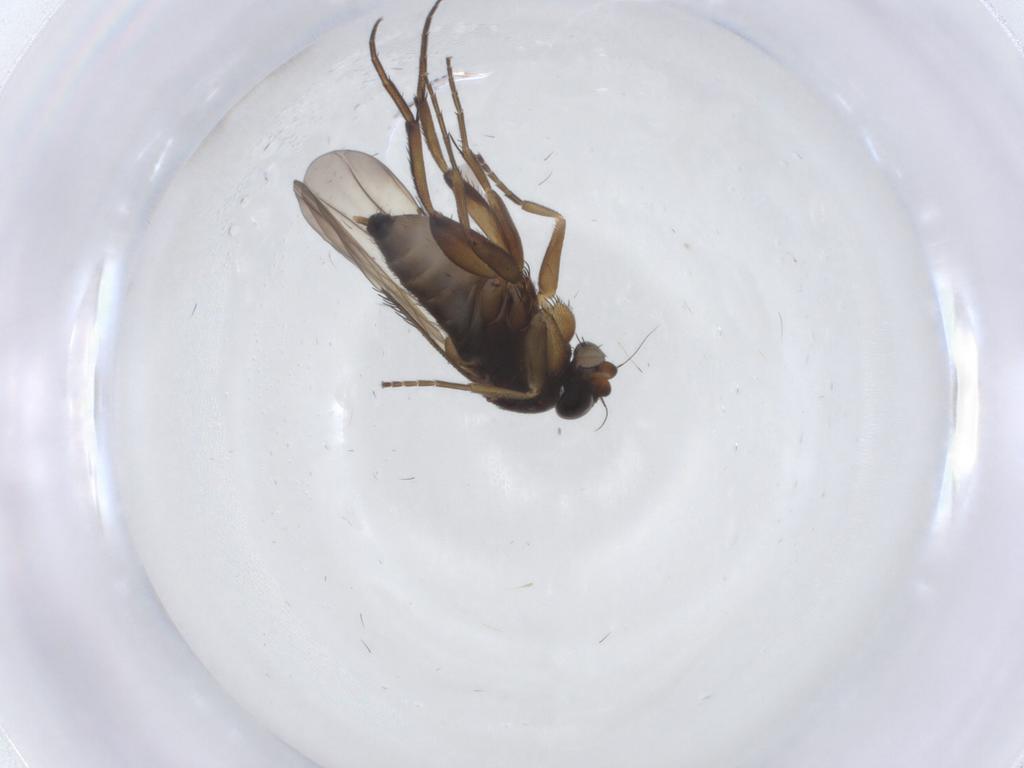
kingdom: Animalia
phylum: Arthropoda
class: Insecta
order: Diptera
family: Phoridae
